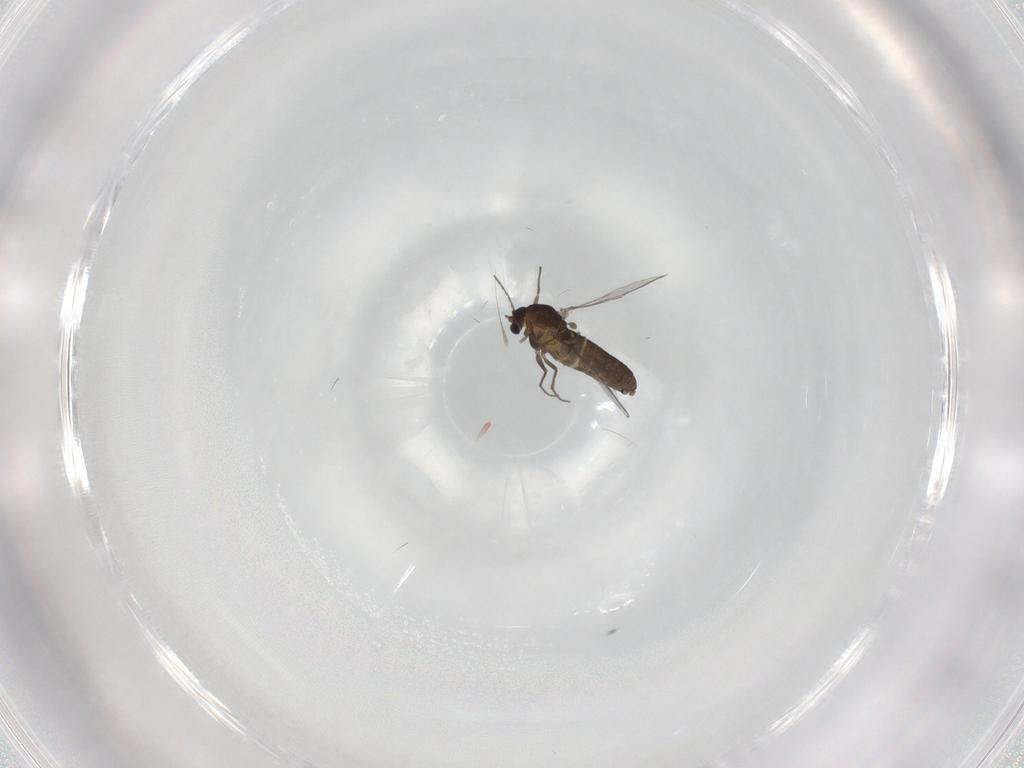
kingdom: Animalia
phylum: Arthropoda
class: Insecta
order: Diptera
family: Chironomidae
